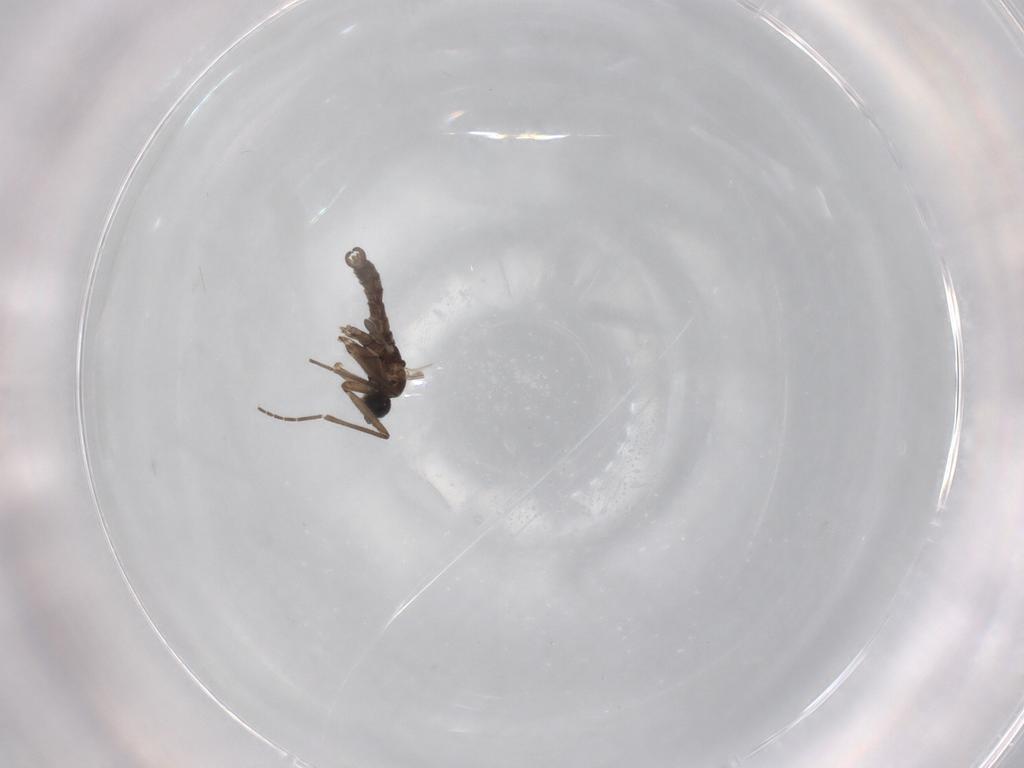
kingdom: Animalia
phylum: Arthropoda
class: Insecta
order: Diptera
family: Sciaridae
